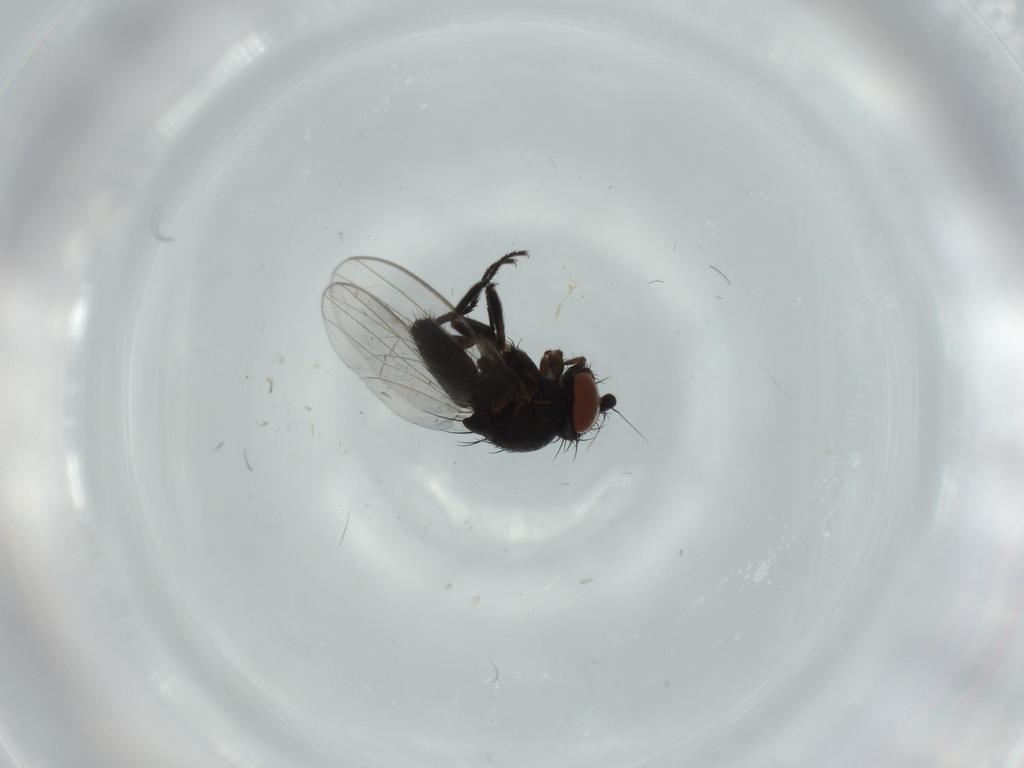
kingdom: Animalia
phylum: Arthropoda
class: Insecta
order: Diptera
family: Milichiidae
